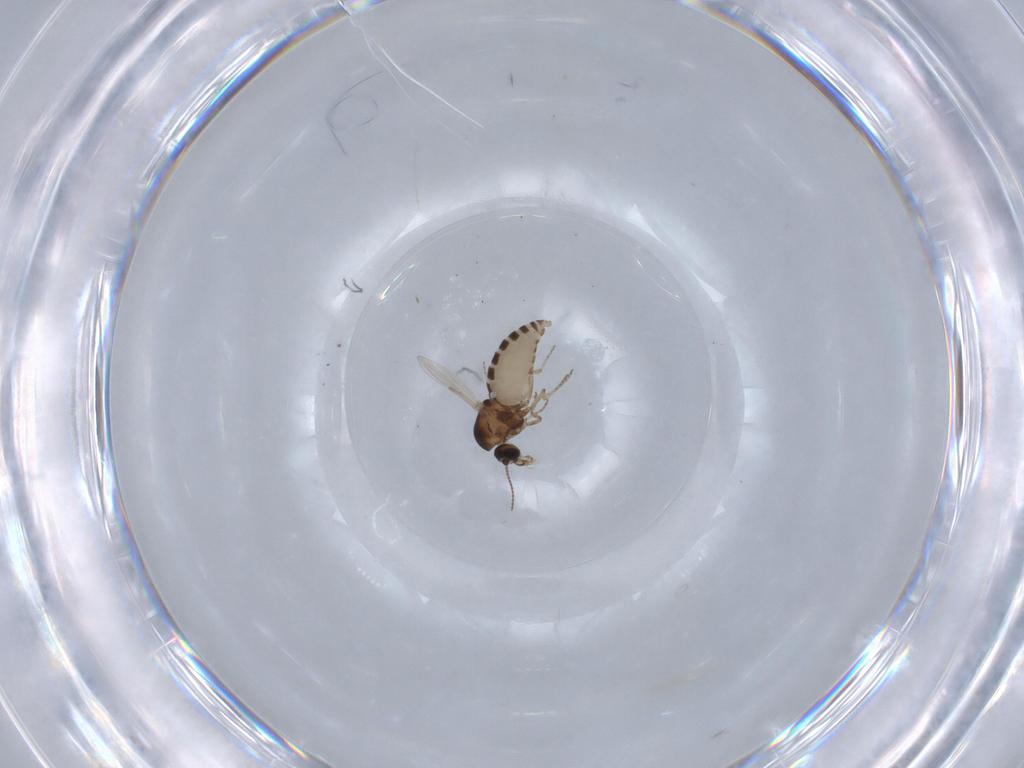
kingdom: Animalia
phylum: Arthropoda
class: Insecta
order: Diptera
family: Ceratopogonidae
